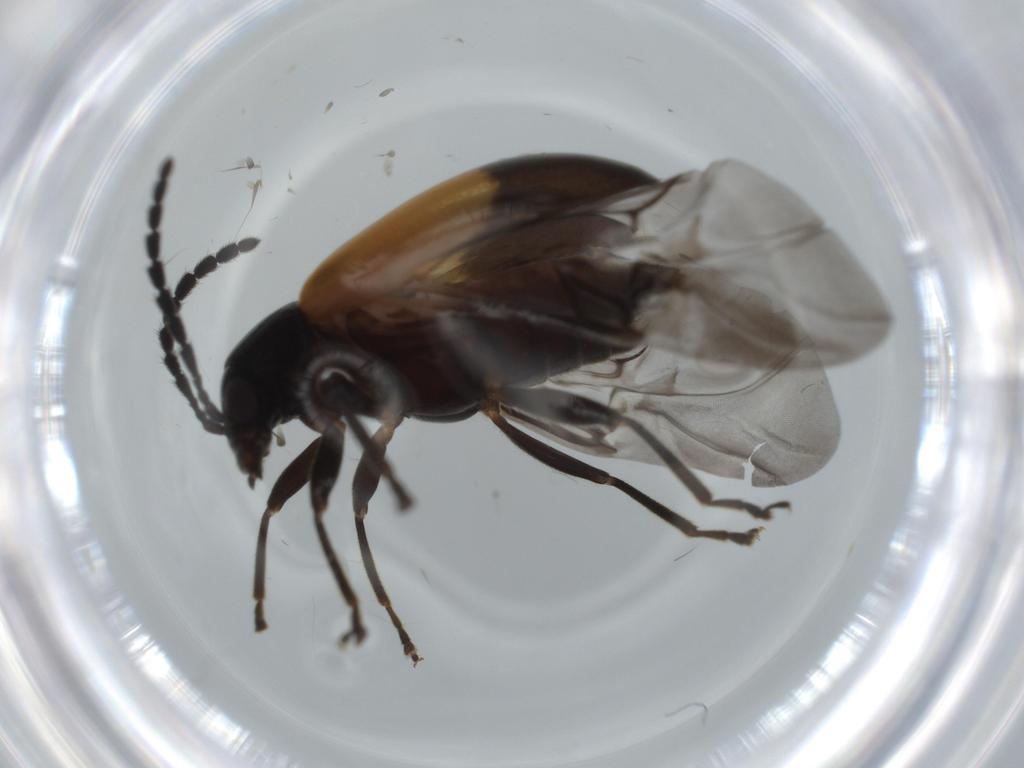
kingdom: Animalia
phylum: Arthropoda
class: Insecta
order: Coleoptera
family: Chrysomelidae
